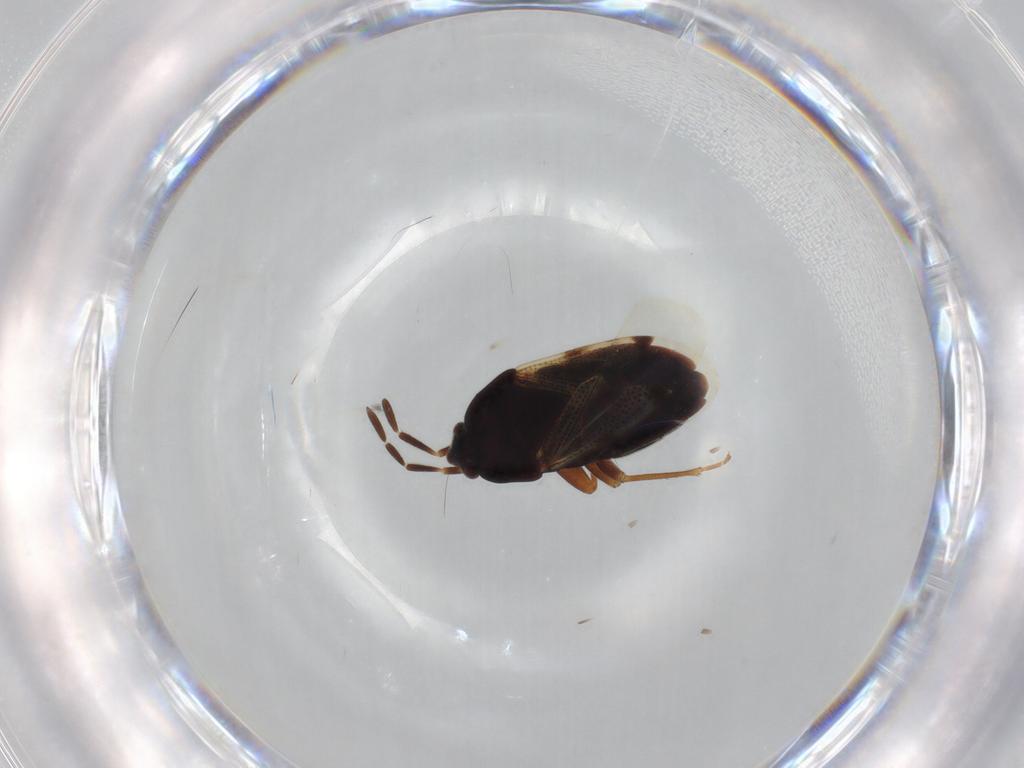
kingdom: Animalia
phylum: Arthropoda
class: Insecta
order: Hemiptera
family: Rhyparochromidae
